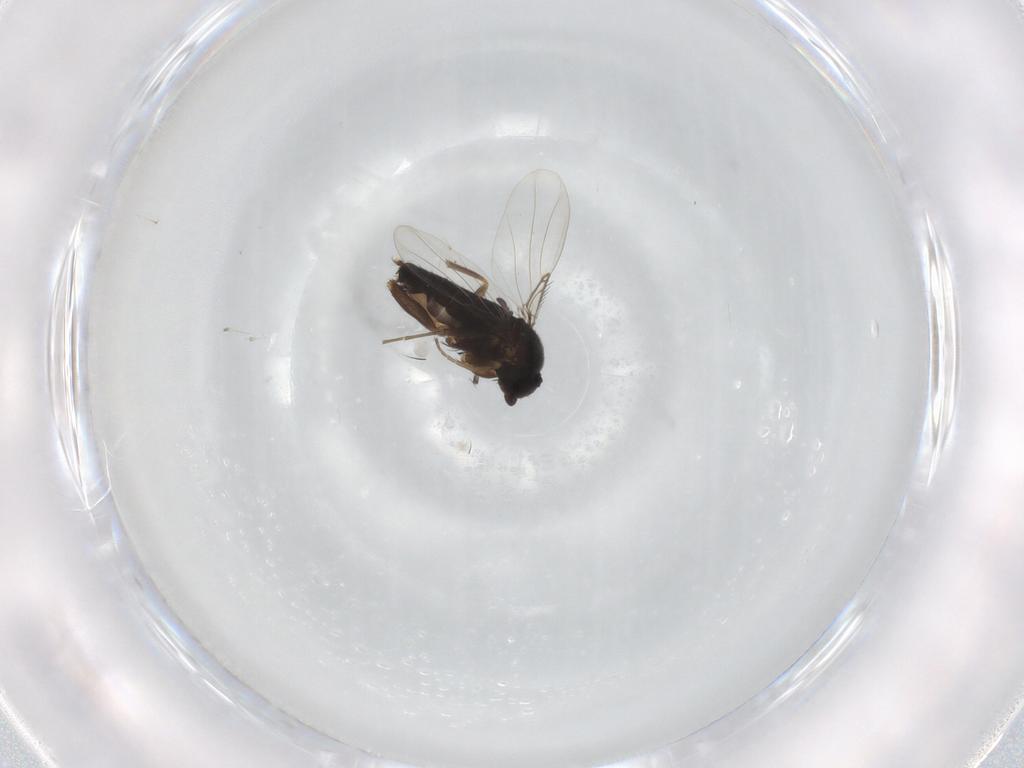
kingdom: Animalia
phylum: Arthropoda
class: Insecta
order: Diptera
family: Phoridae
